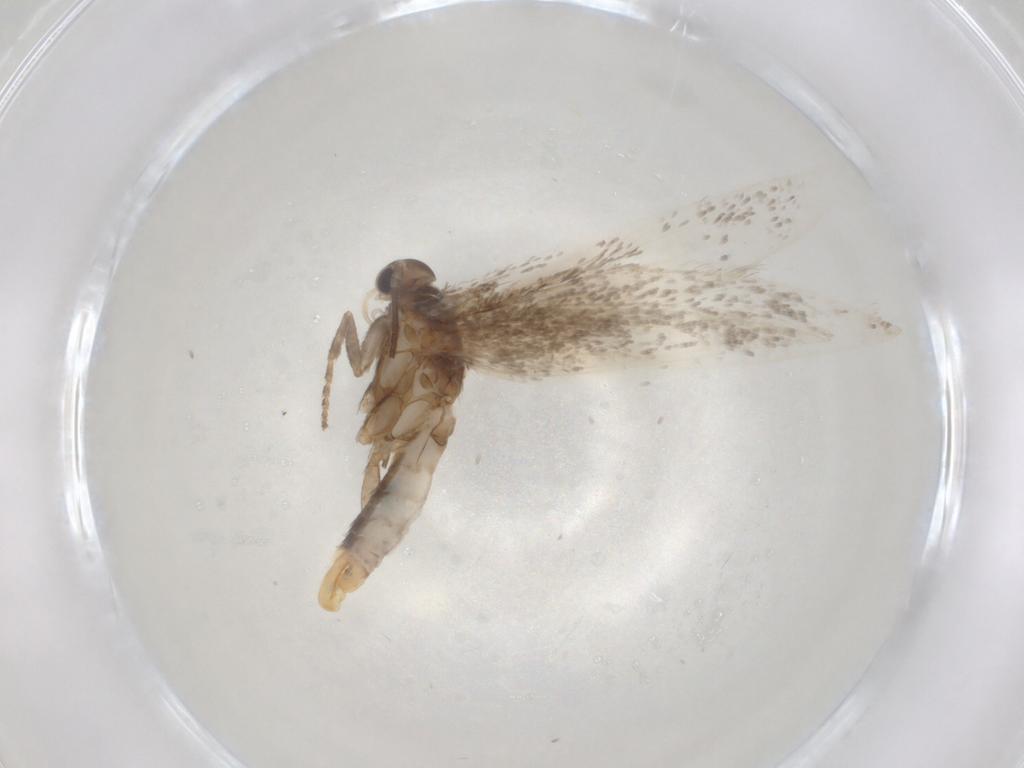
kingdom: Animalia
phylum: Arthropoda
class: Insecta
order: Lepidoptera
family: Elachistidae
